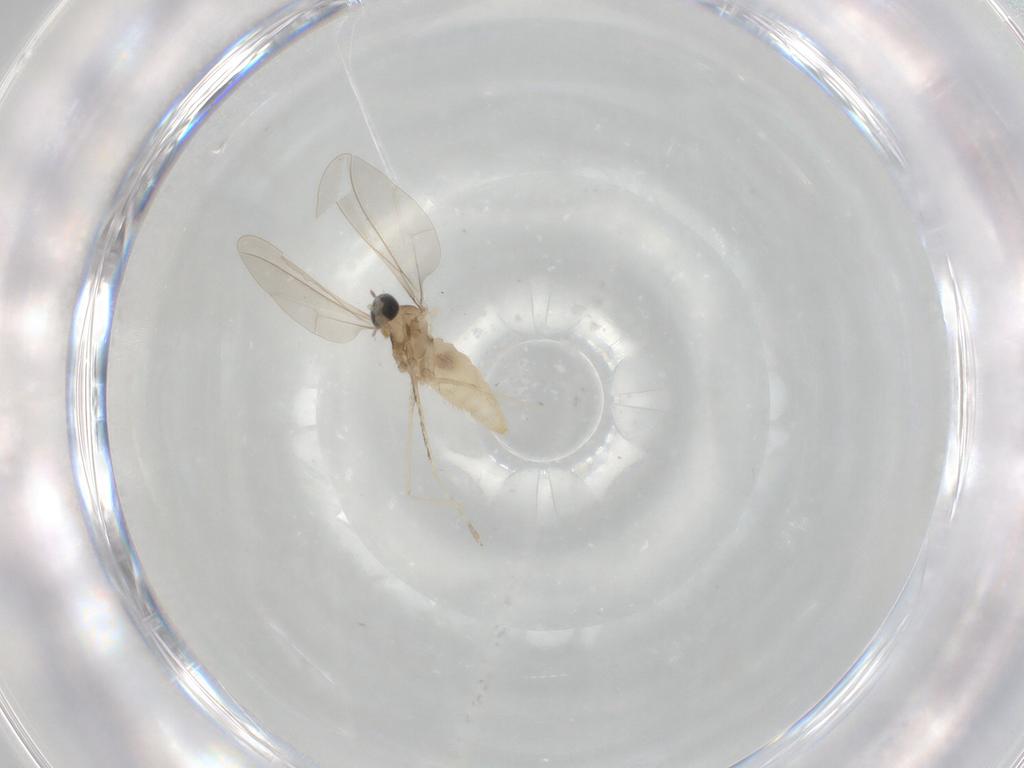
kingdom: Animalia
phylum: Arthropoda
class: Insecta
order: Diptera
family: Cecidomyiidae
